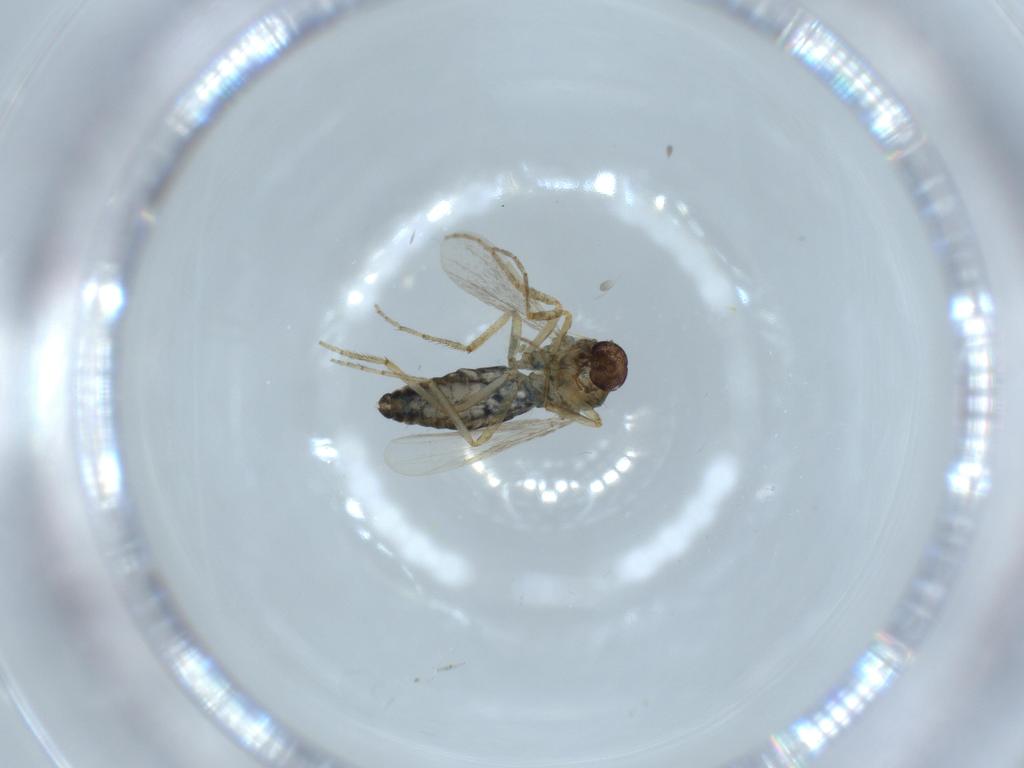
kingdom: Animalia
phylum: Arthropoda
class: Insecta
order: Diptera
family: Ceratopogonidae
